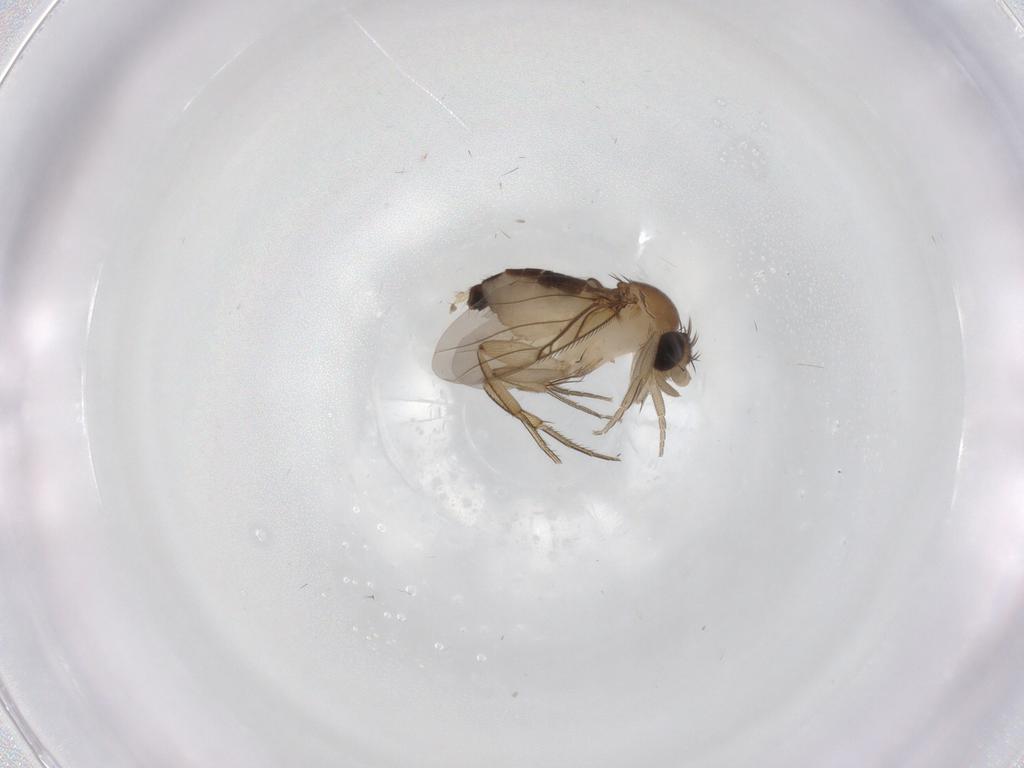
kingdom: Animalia
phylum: Arthropoda
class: Insecta
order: Diptera
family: Phoridae
